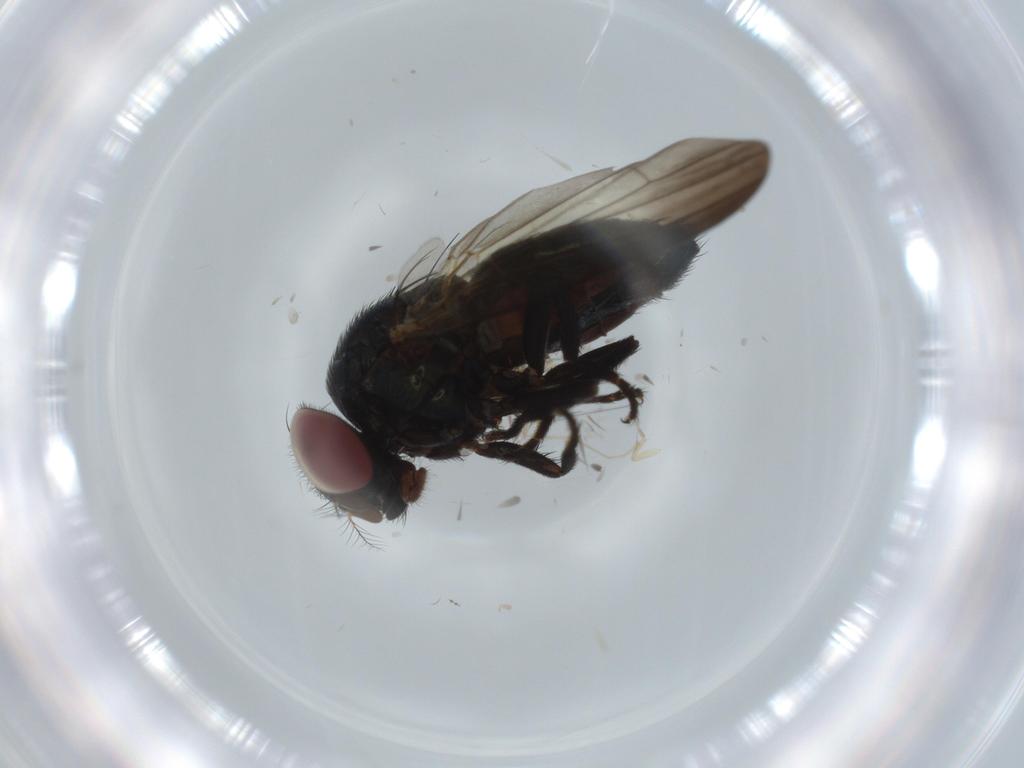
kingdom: Animalia
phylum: Arthropoda
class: Insecta
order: Diptera
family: Lonchaeidae
